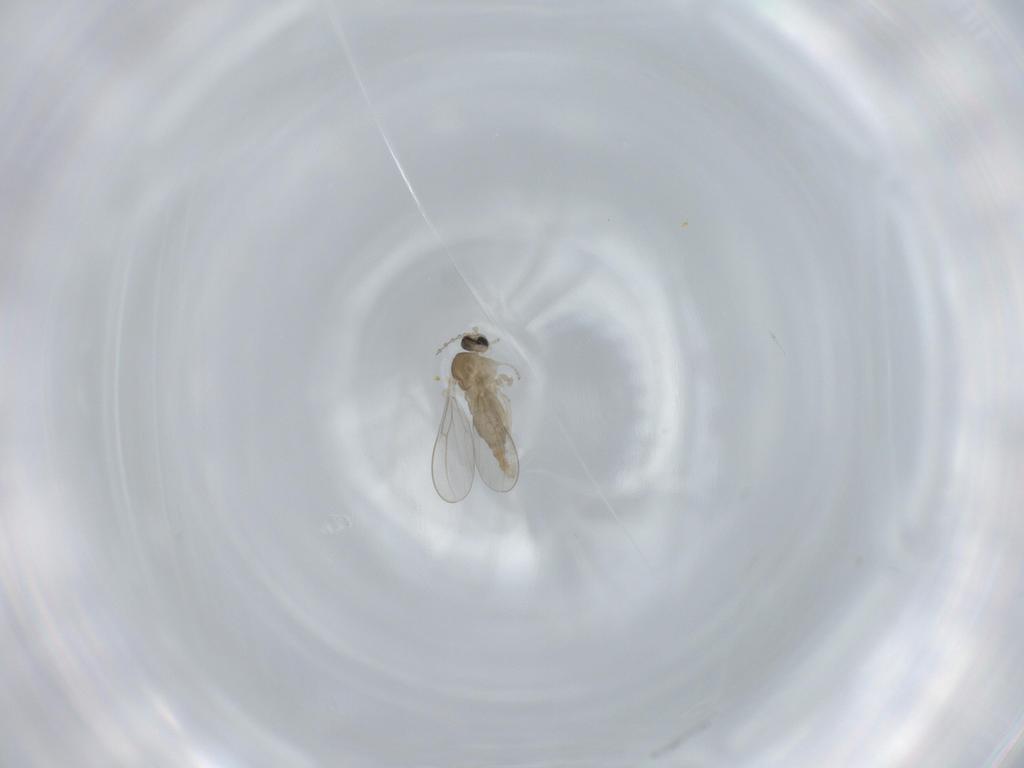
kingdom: Animalia
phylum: Arthropoda
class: Insecta
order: Diptera
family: Cecidomyiidae
